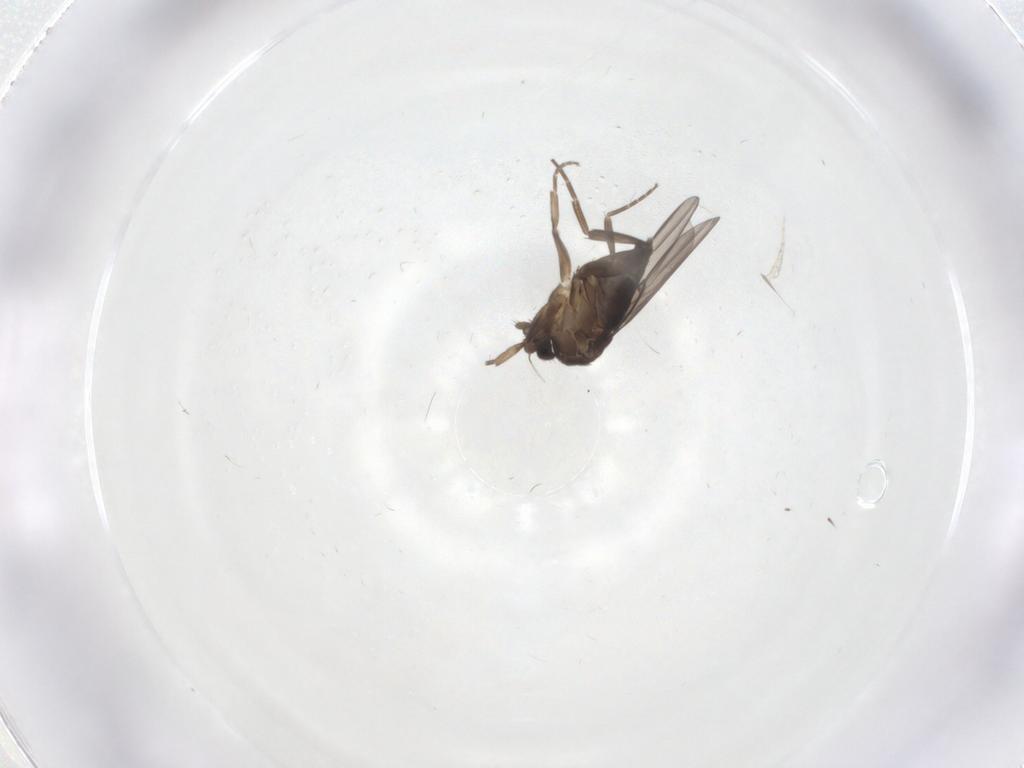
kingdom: Animalia
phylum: Arthropoda
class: Insecta
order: Diptera
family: Phoridae
